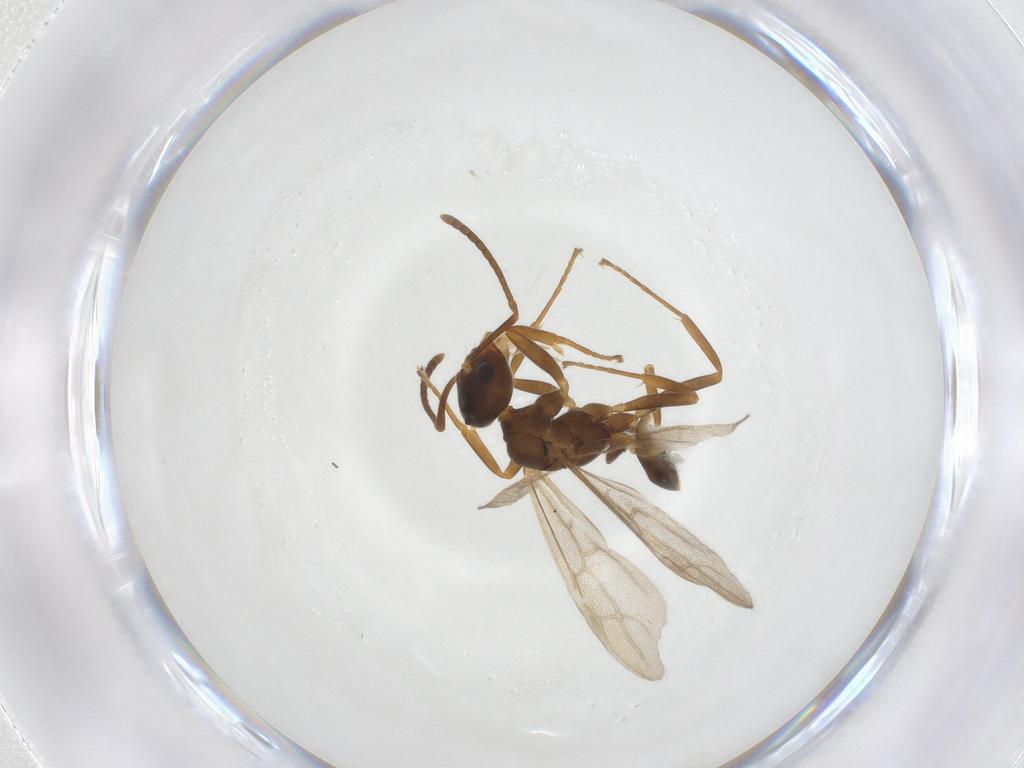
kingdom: Animalia
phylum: Arthropoda
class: Insecta
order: Hymenoptera
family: Formicidae
